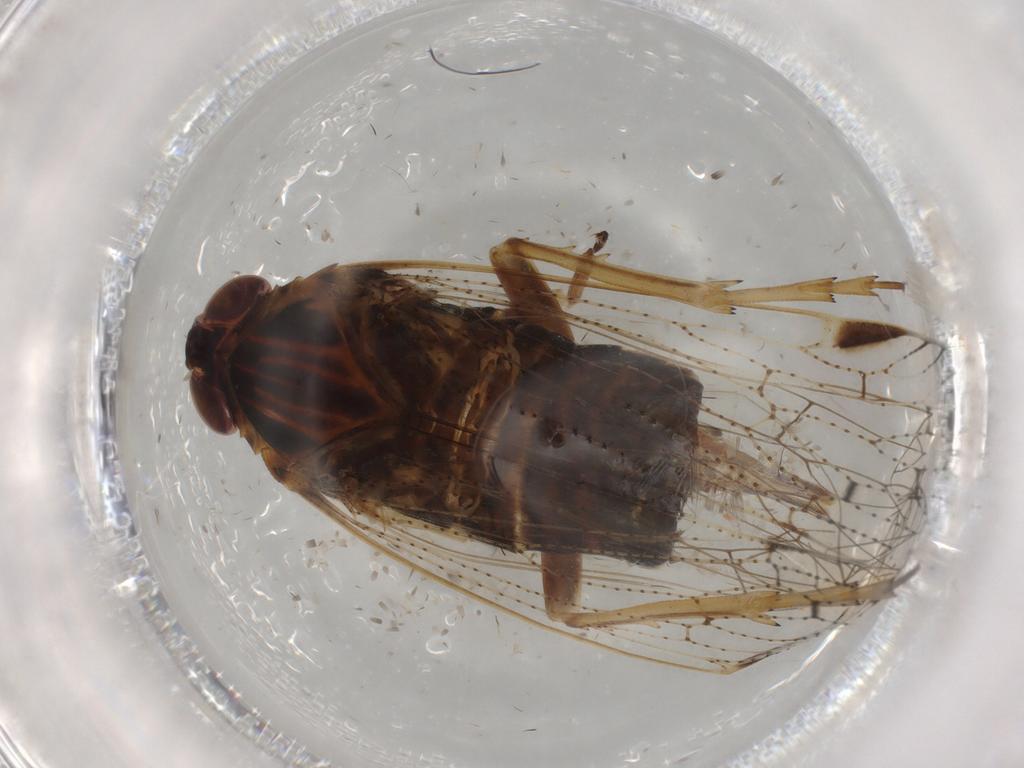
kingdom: Animalia
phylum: Arthropoda
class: Insecta
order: Hemiptera
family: Cixiidae
